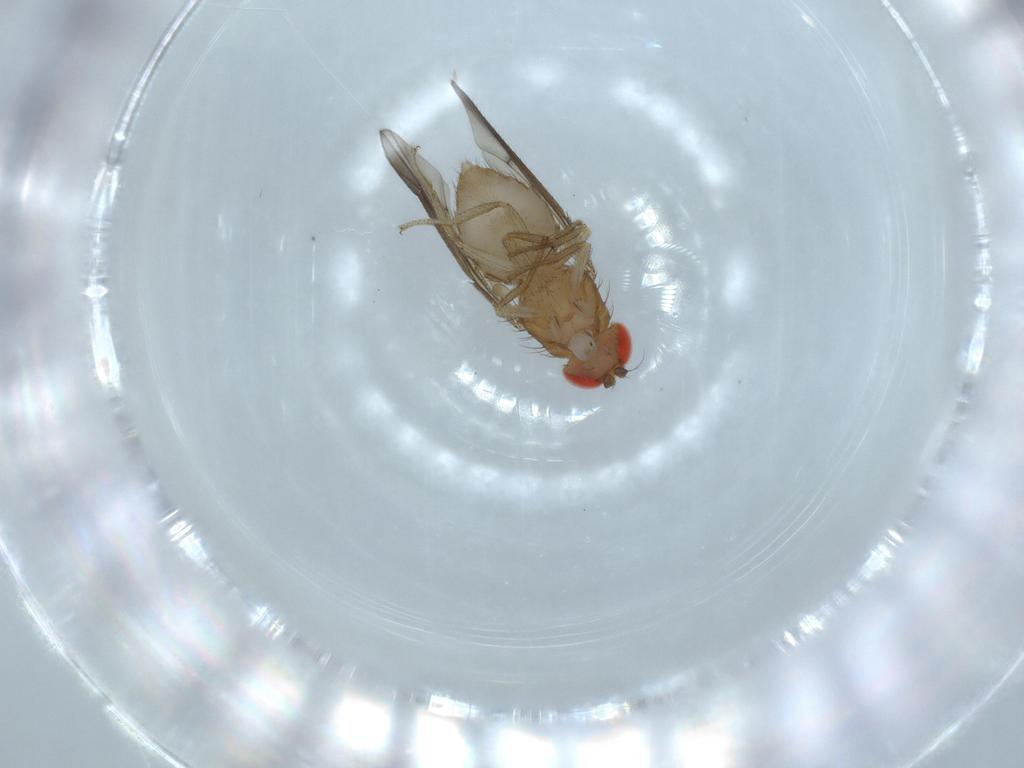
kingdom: Animalia
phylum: Arthropoda
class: Insecta
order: Diptera
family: Drosophilidae
